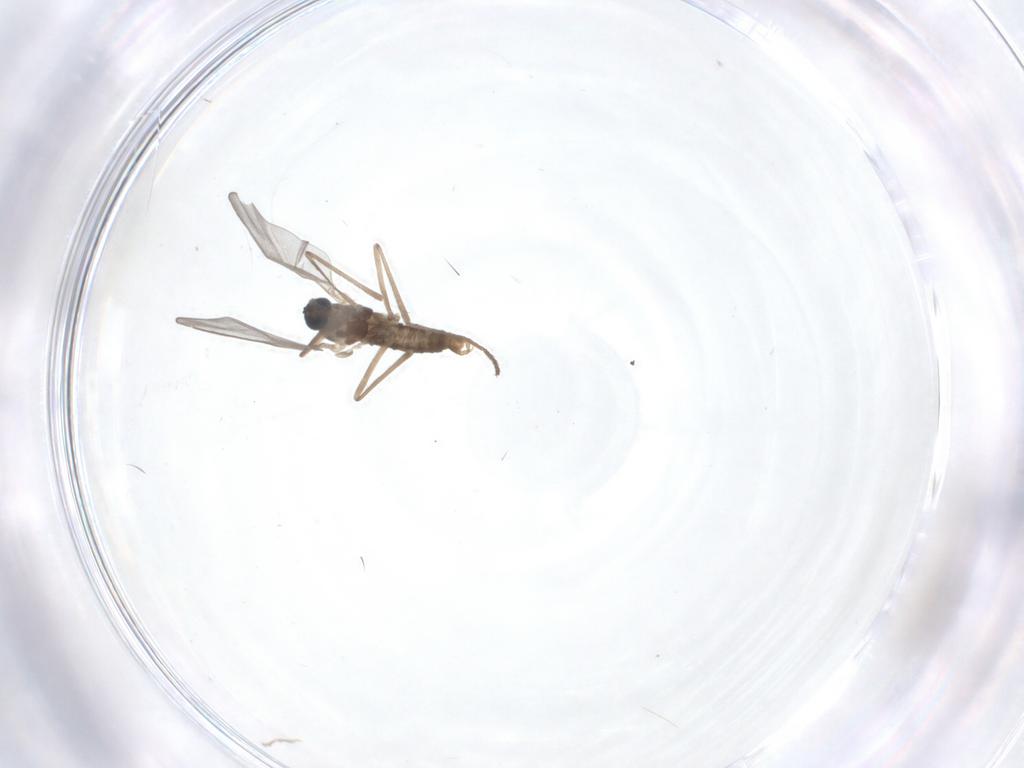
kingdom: Animalia
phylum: Arthropoda
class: Insecta
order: Diptera
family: Cecidomyiidae
